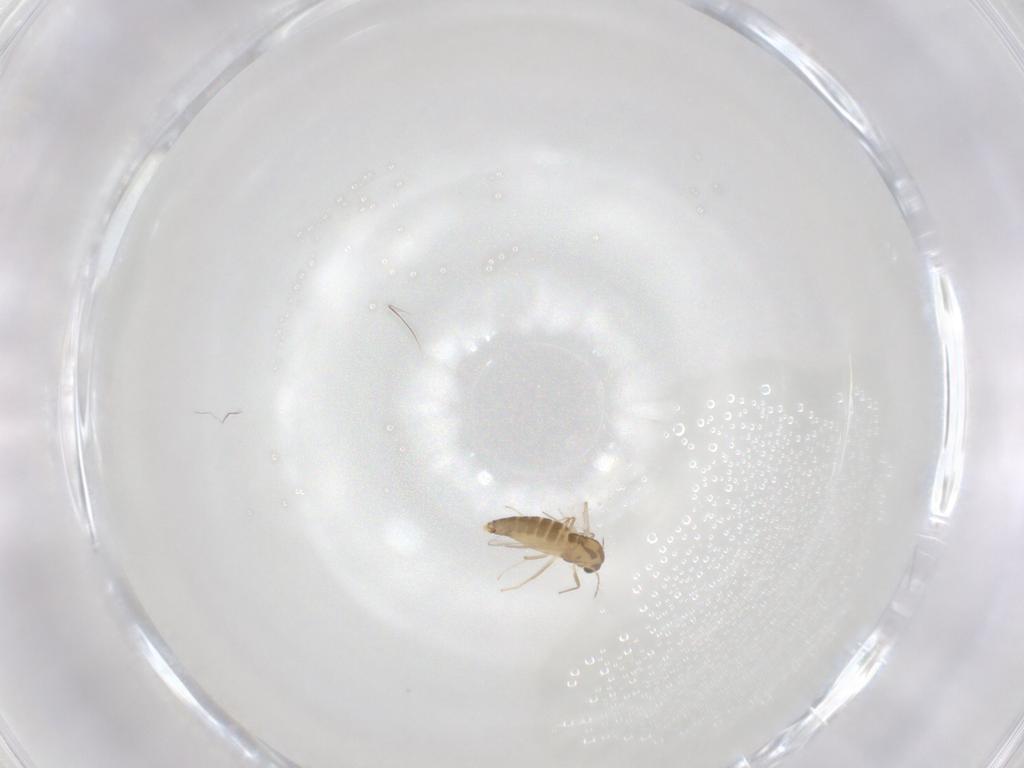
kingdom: Animalia
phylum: Arthropoda
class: Insecta
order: Diptera
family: Chironomidae
